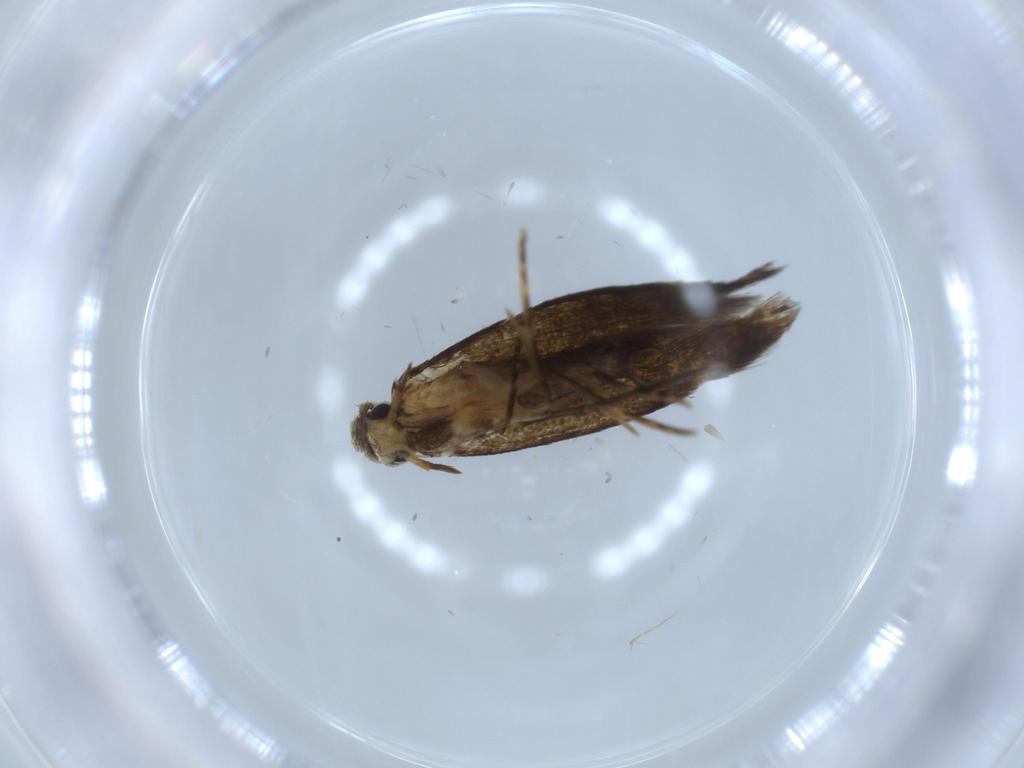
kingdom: Animalia
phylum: Arthropoda
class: Insecta
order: Lepidoptera
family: Tineidae
